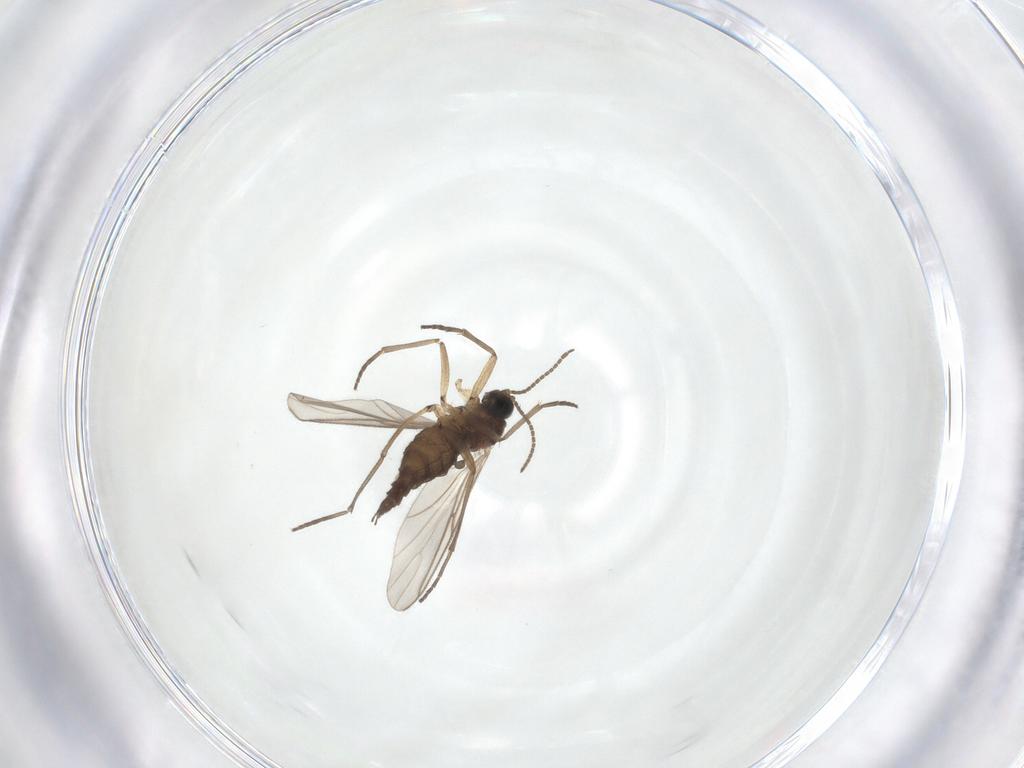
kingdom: Animalia
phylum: Arthropoda
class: Insecta
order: Diptera
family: Sciaridae
